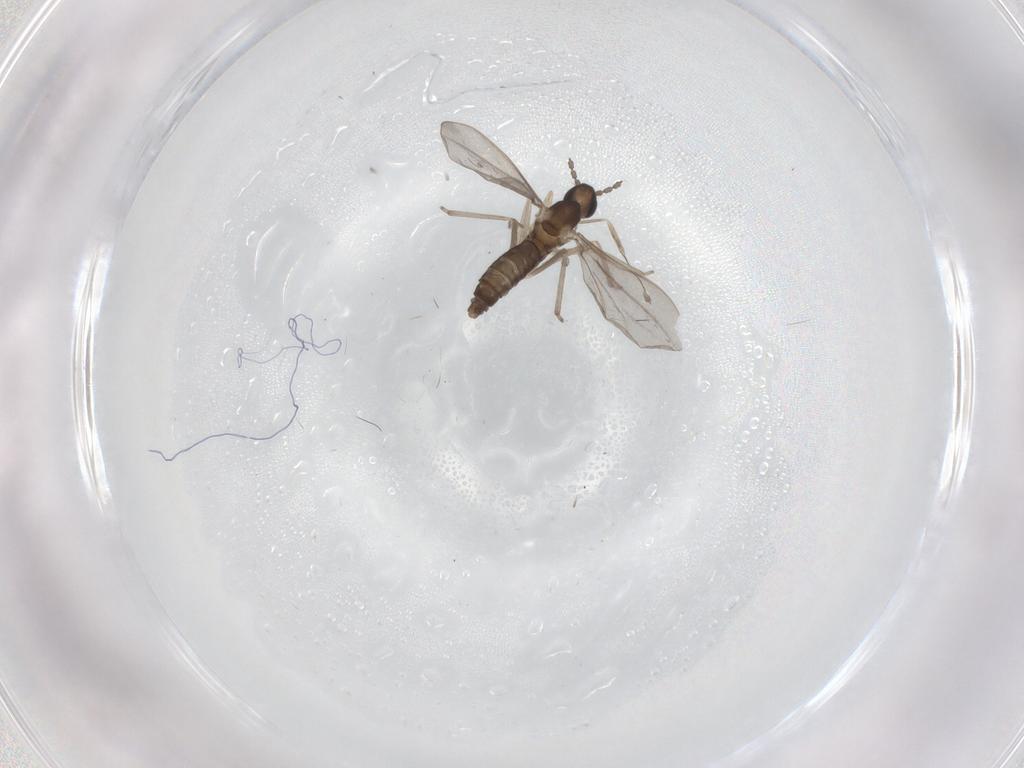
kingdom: Animalia
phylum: Arthropoda
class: Insecta
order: Diptera
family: Cecidomyiidae
